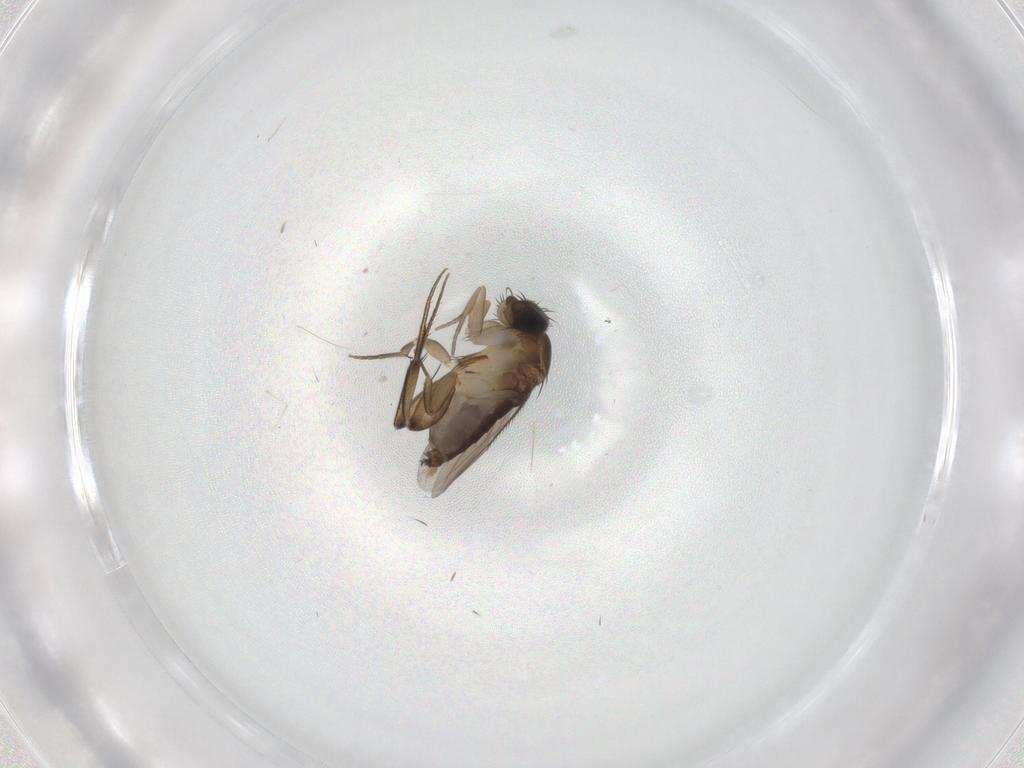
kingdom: Animalia
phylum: Arthropoda
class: Insecta
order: Diptera
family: Phoridae
